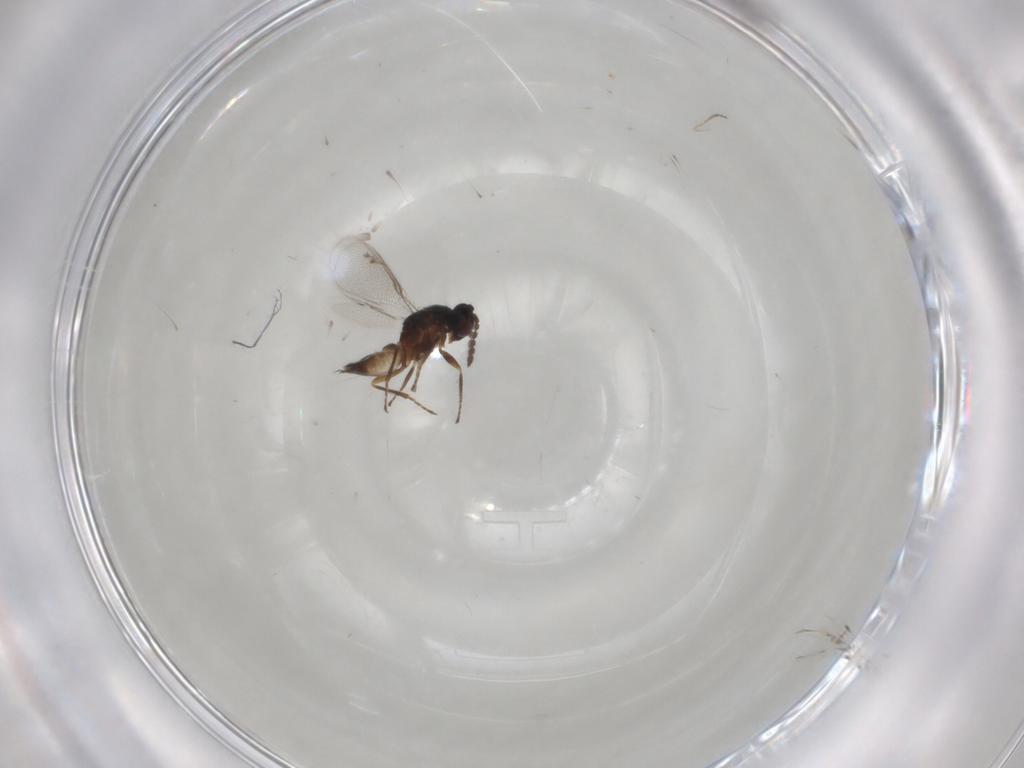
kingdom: Animalia
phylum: Arthropoda
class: Insecta
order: Hymenoptera
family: Eulophidae
